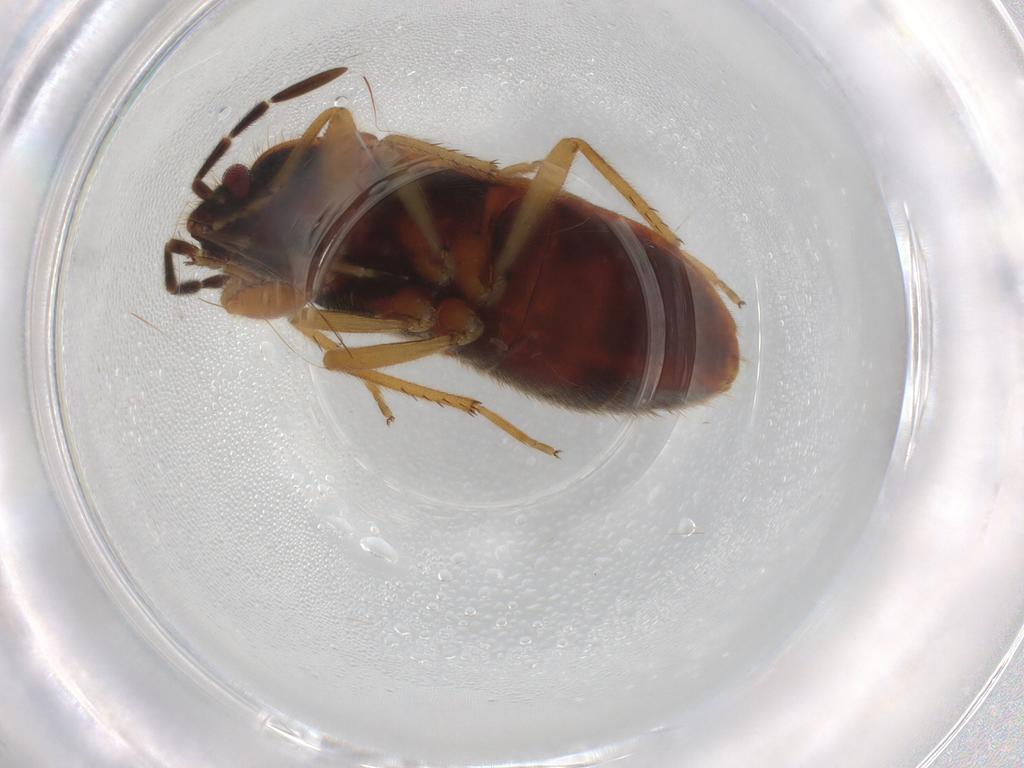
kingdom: Animalia
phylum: Arthropoda
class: Insecta
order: Hemiptera
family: Rhyparochromidae
